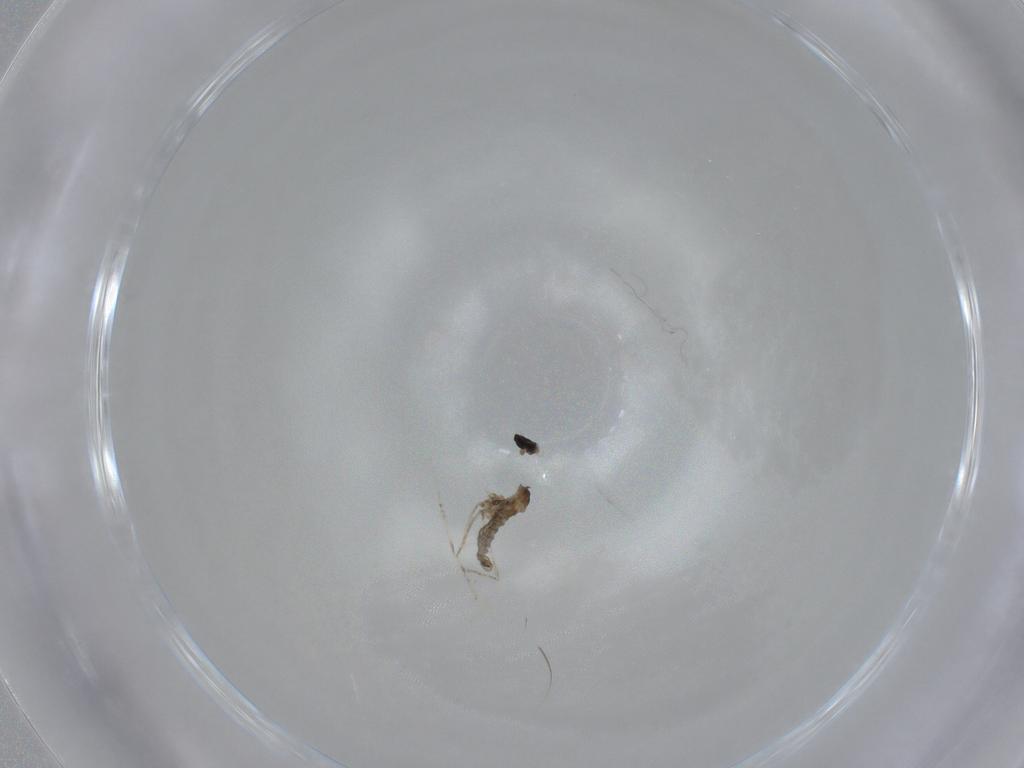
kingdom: Animalia
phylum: Arthropoda
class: Insecta
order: Diptera
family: Cecidomyiidae
